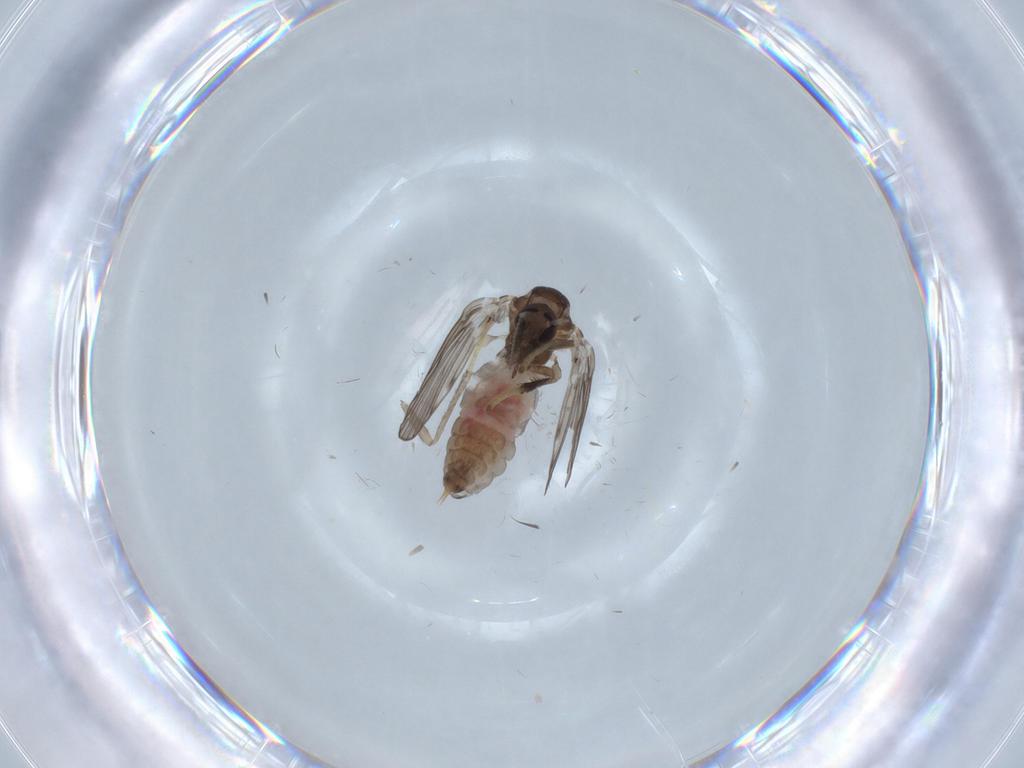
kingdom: Animalia
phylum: Arthropoda
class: Insecta
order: Diptera
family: Psychodidae
